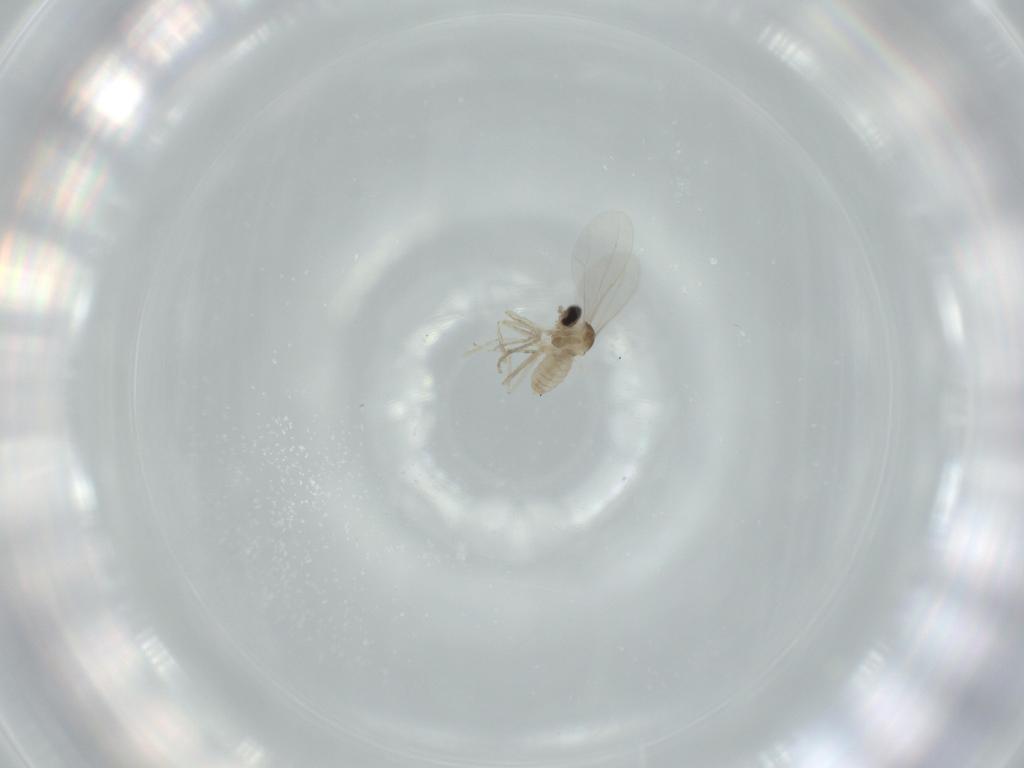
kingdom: Animalia
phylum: Arthropoda
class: Insecta
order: Diptera
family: Cecidomyiidae
